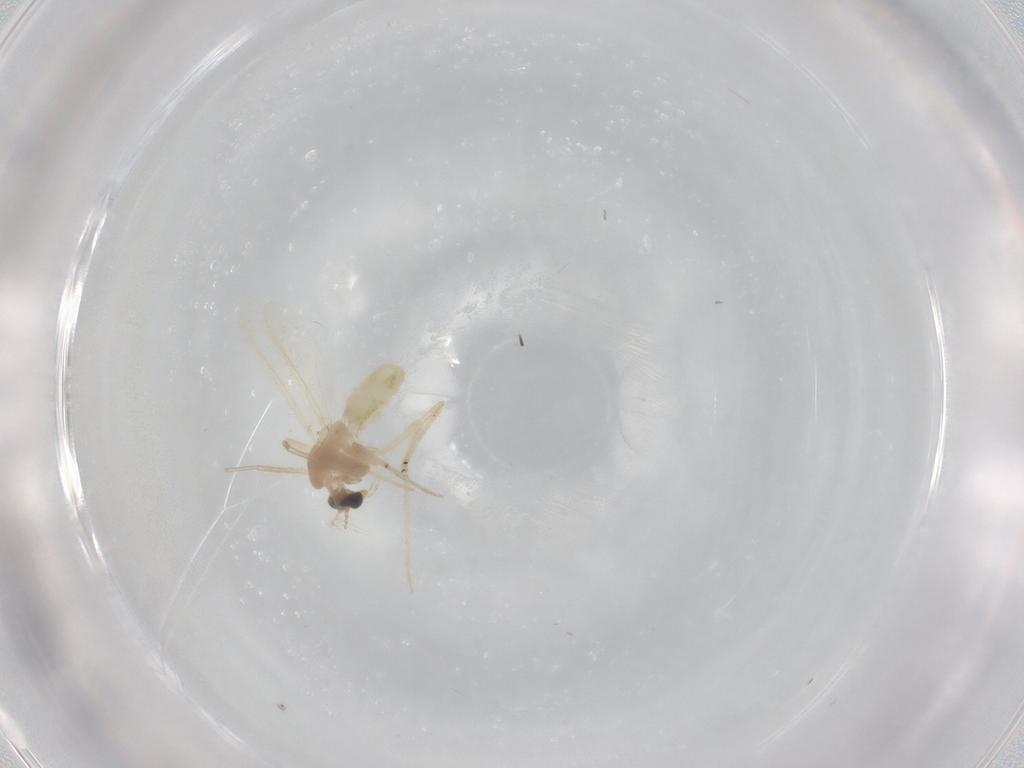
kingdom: Animalia
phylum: Arthropoda
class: Insecta
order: Diptera
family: Chironomidae
